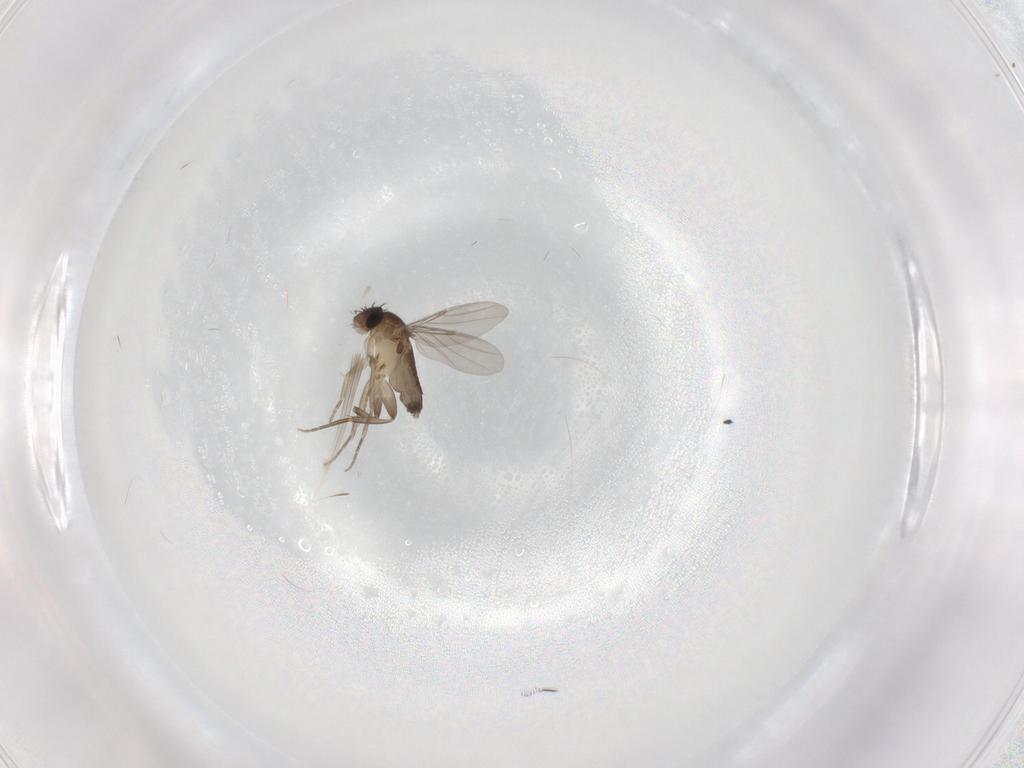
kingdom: Animalia
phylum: Arthropoda
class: Insecta
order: Diptera
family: Phoridae
